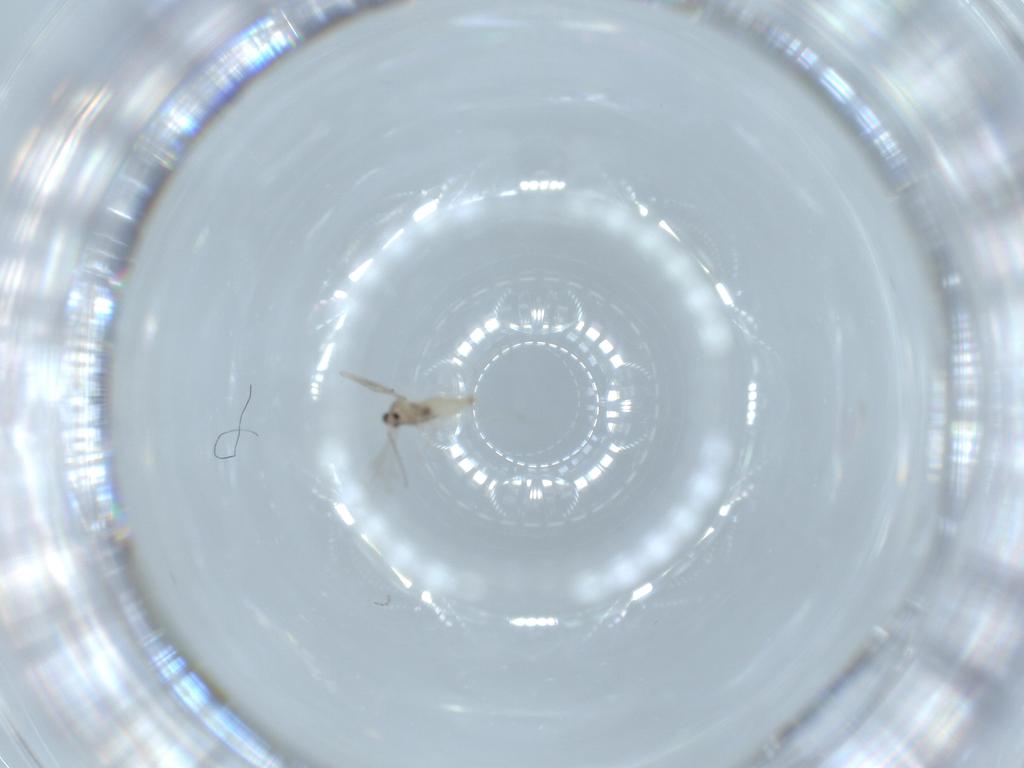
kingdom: Animalia
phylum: Arthropoda
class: Insecta
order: Diptera
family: Cecidomyiidae
